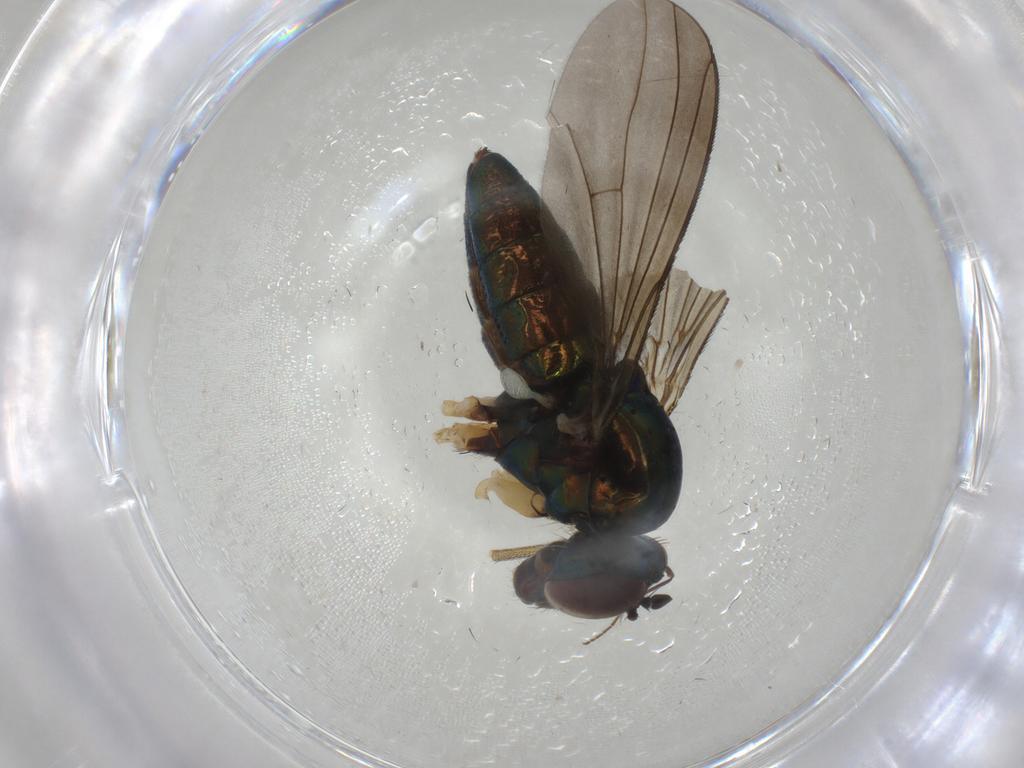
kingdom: Animalia
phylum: Arthropoda
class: Insecta
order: Diptera
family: Dolichopodidae
